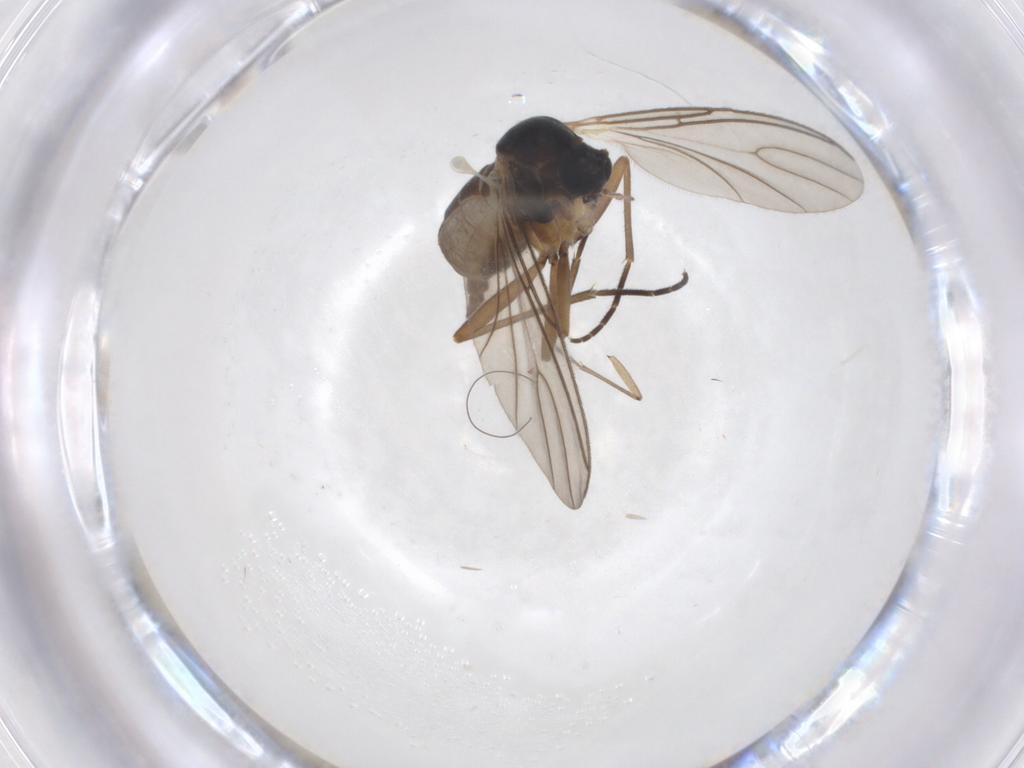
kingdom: Animalia
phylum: Arthropoda
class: Insecta
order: Diptera
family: Sciaridae
